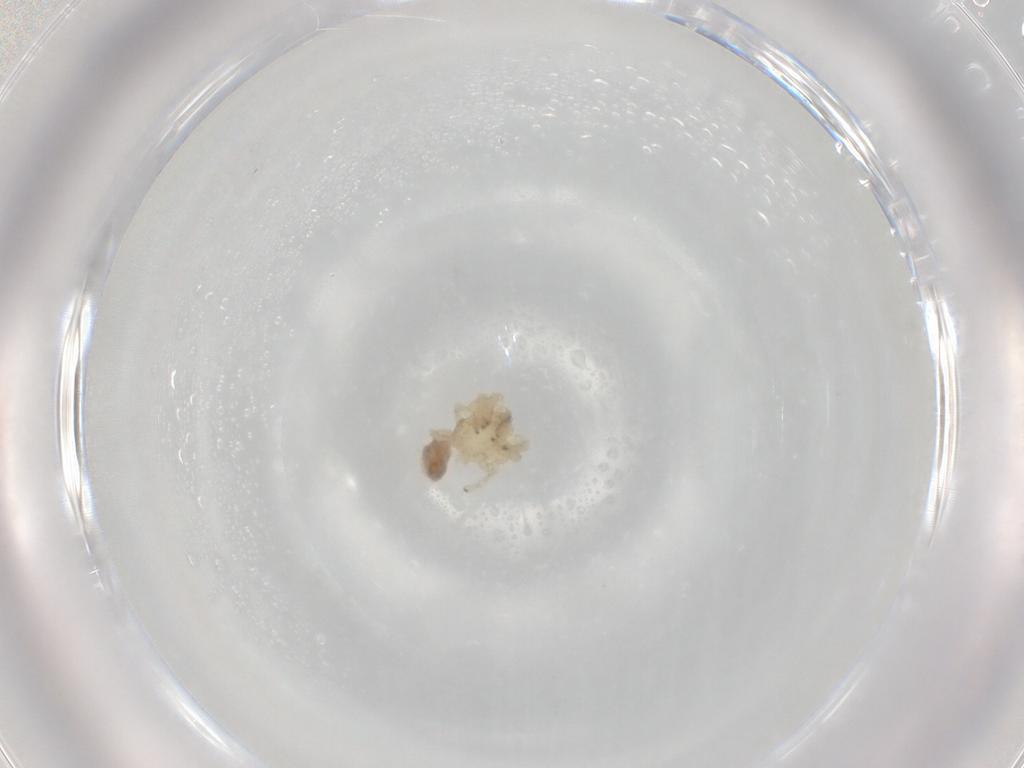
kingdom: Animalia
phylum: Arthropoda
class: Arachnida
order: Araneae
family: Pholcidae
